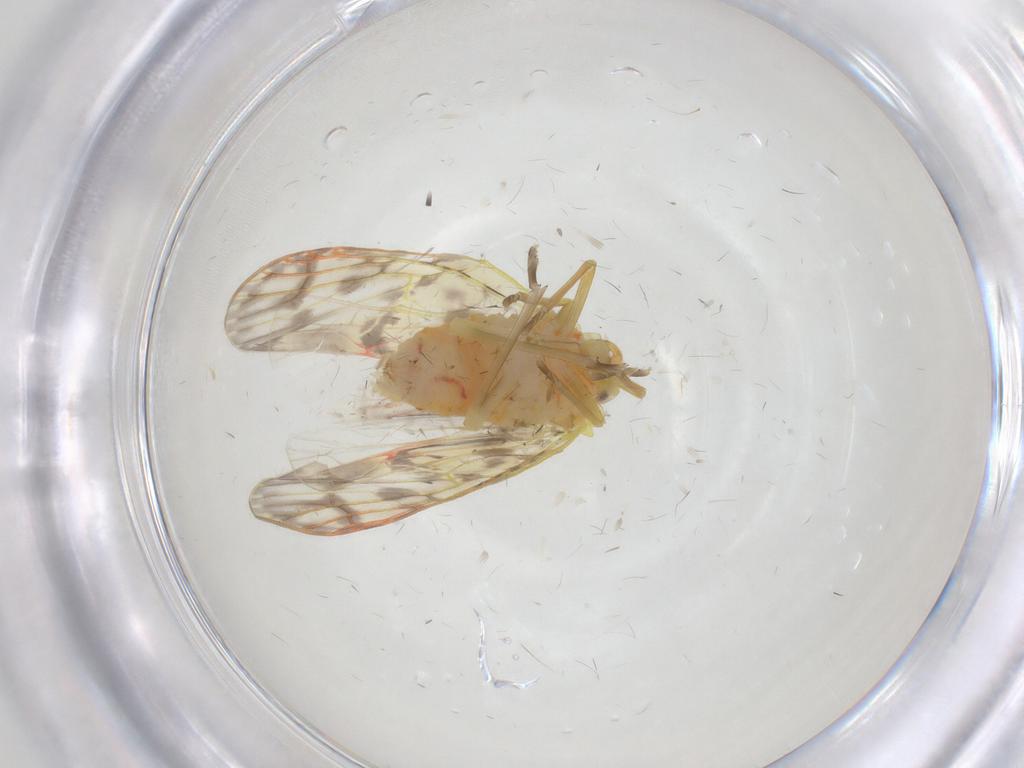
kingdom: Animalia
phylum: Arthropoda
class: Insecta
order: Hemiptera
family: Derbidae
